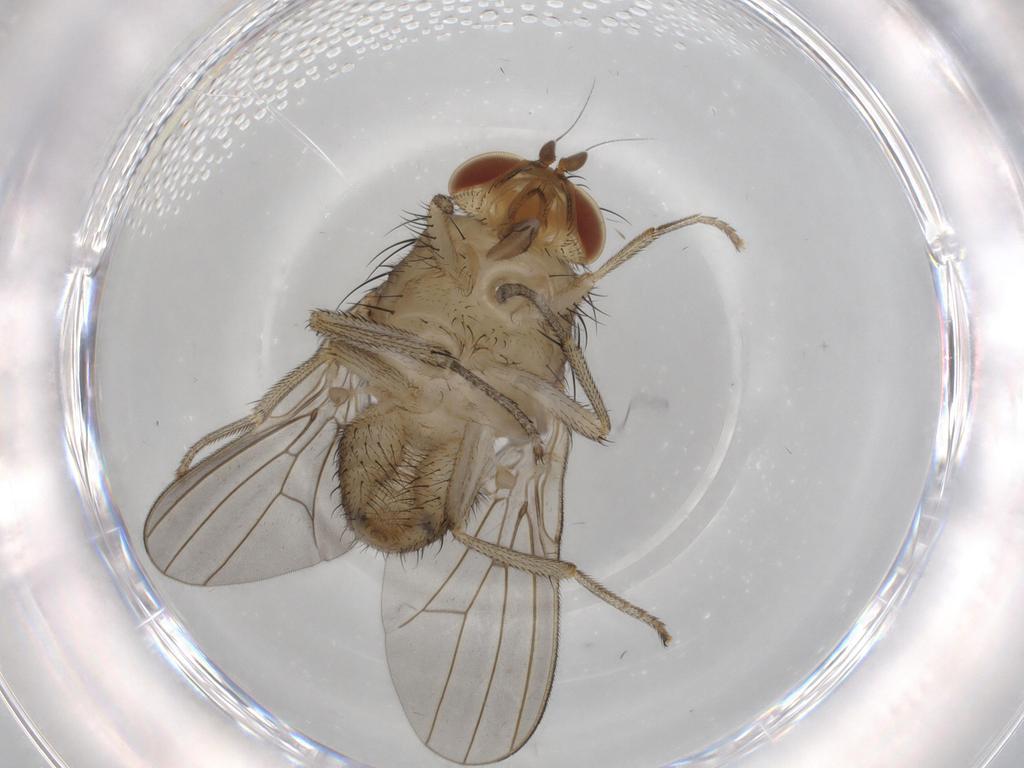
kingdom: Animalia
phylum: Arthropoda
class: Insecta
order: Diptera
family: Chironomidae
